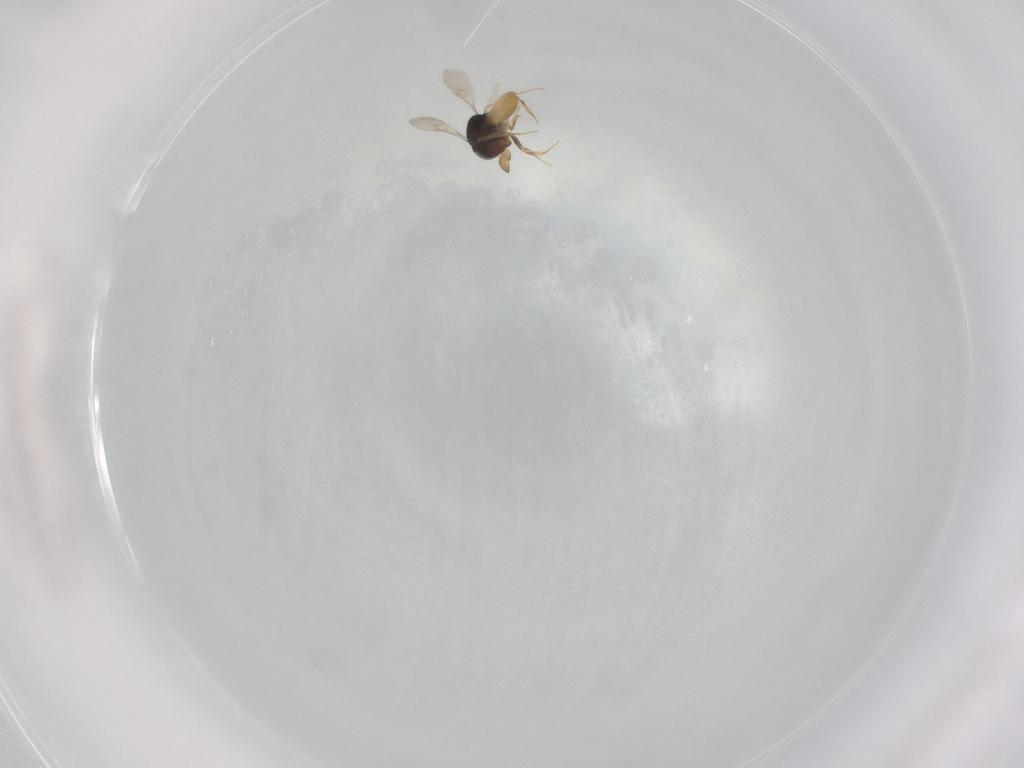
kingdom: Animalia
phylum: Arthropoda
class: Insecta
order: Hymenoptera
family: Scelionidae
